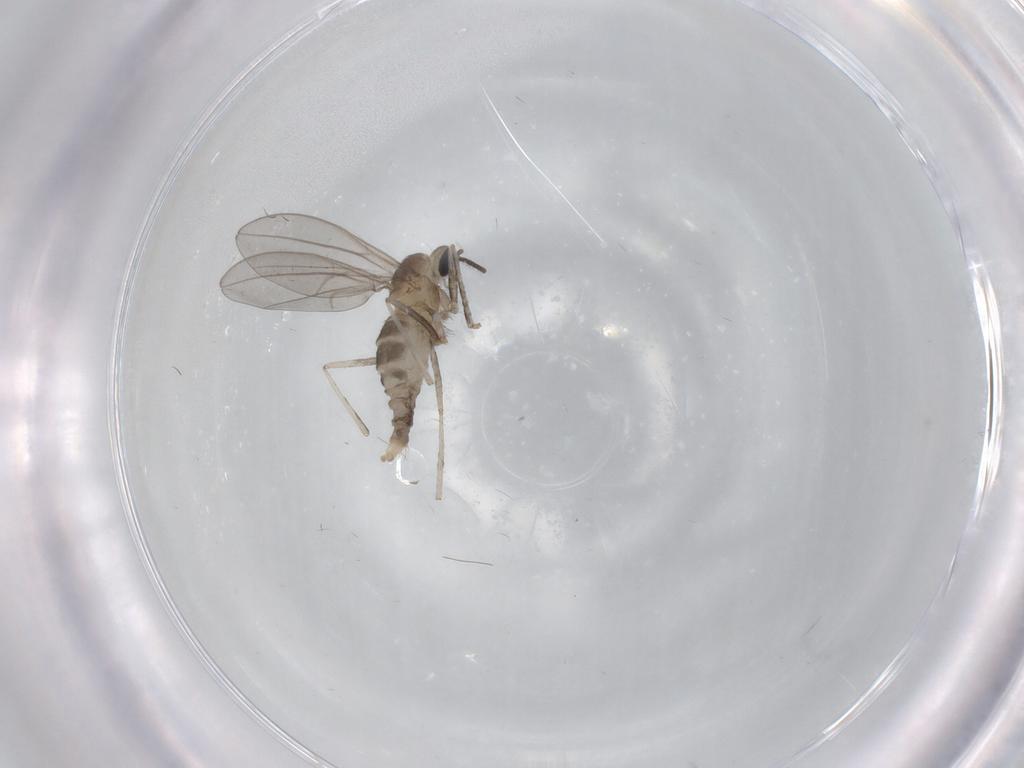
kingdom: Animalia
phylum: Arthropoda
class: Insecta
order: Diptera
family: Cecidomyiidae
